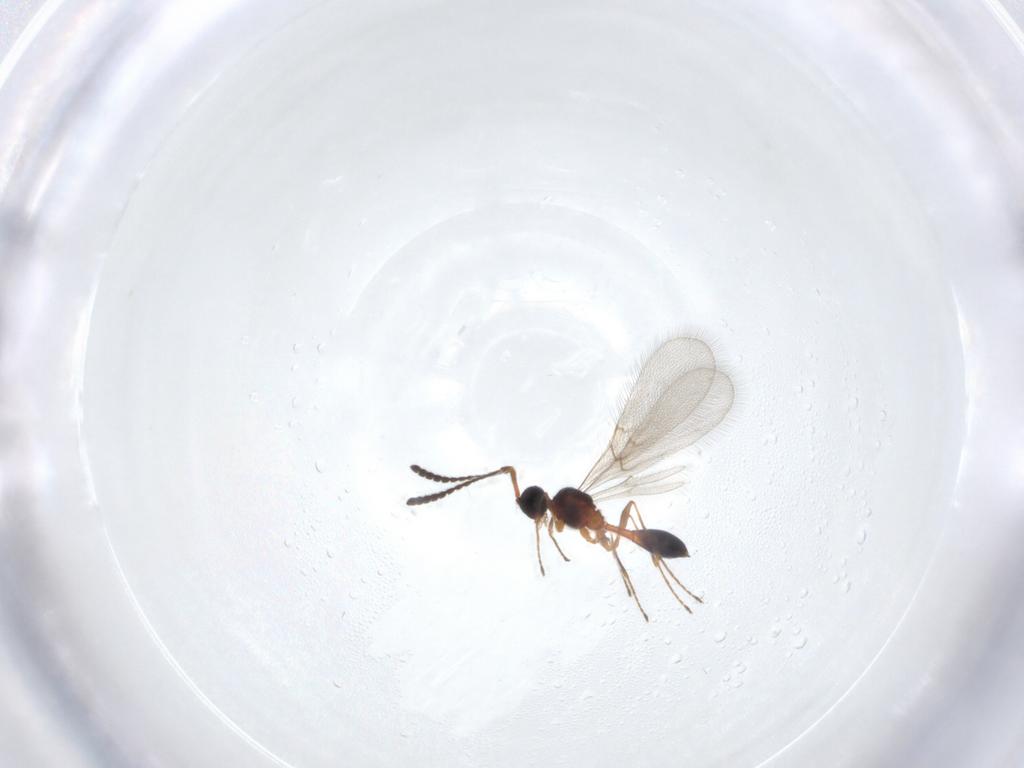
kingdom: Animalia
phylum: Arthropoda
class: Insecta
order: Hymenoptera
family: Diapriidae
